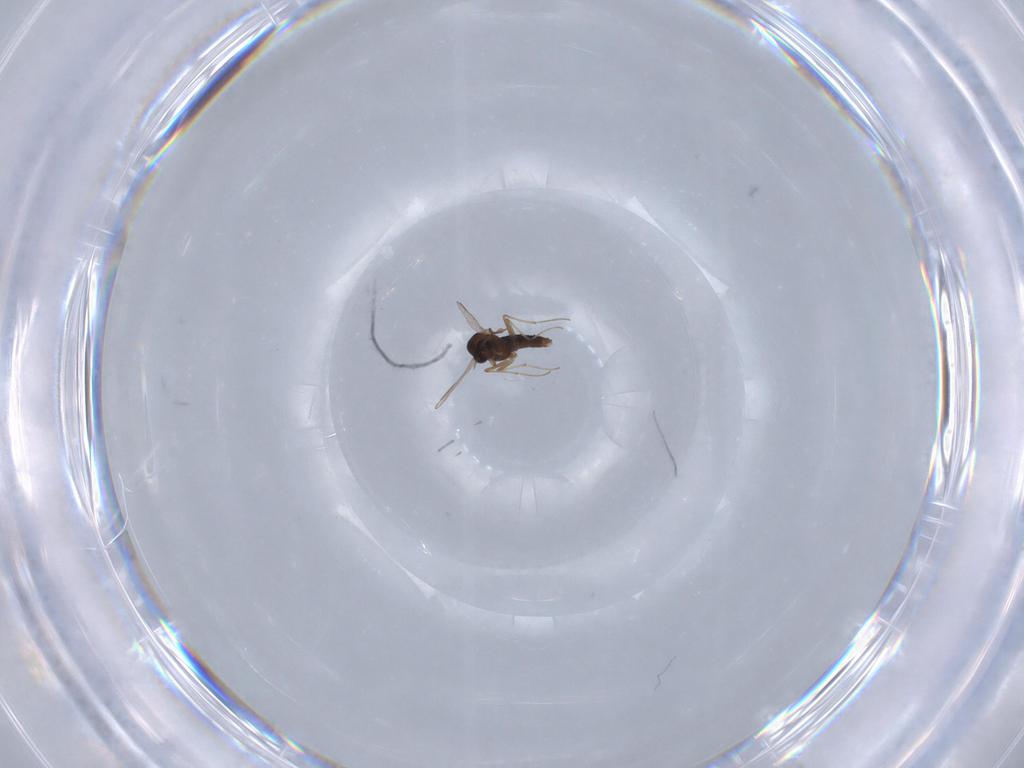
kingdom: Animalia
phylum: Arthropoda
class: Insecta
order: Diptera
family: Chironomidae
